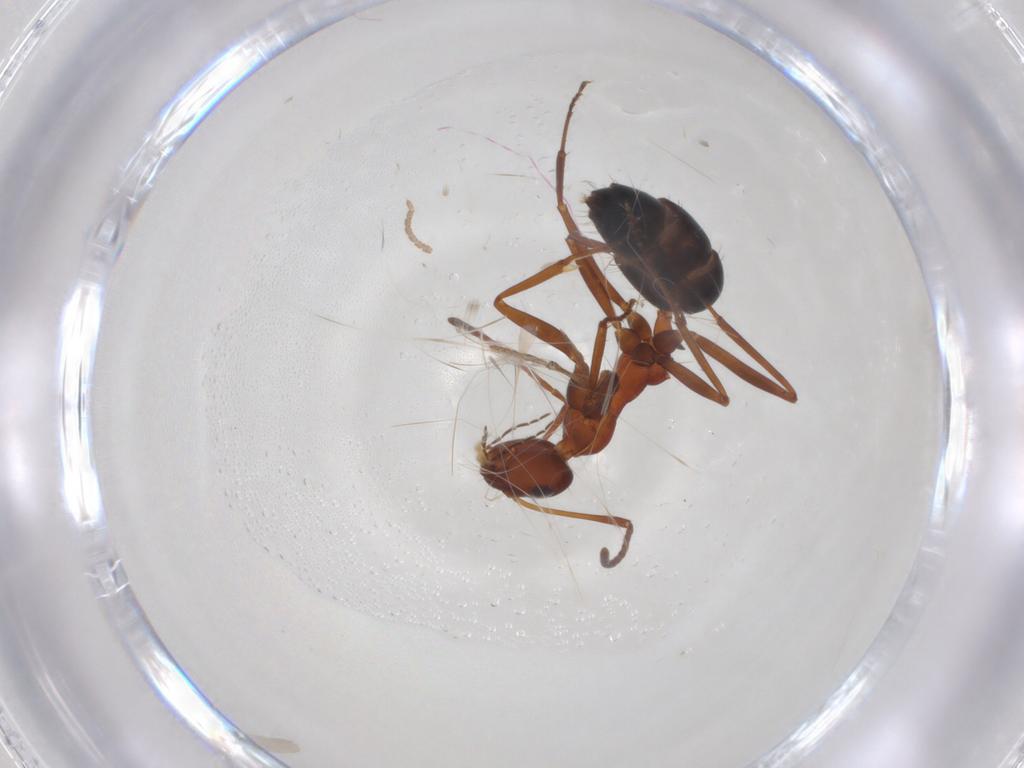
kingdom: Animalia
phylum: Arthropoda
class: Insecta
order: Hymenoptera
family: Formicidae
